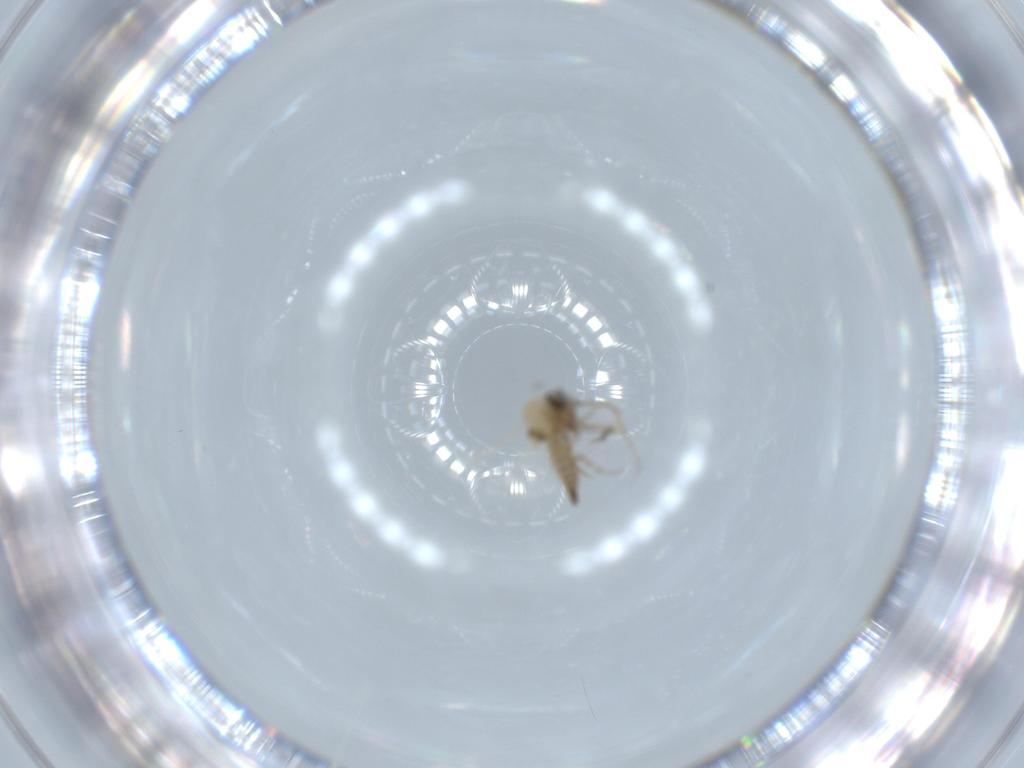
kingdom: Animalia
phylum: Arthropoda
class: Insecta
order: Diptera
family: Ceratopogonidae
